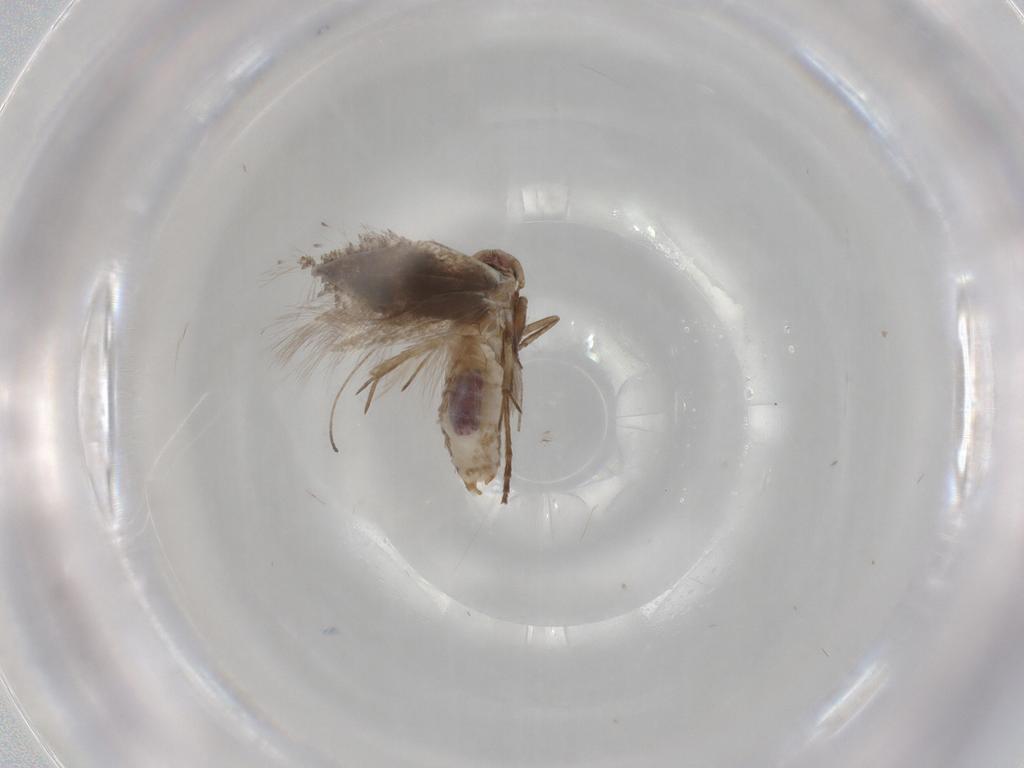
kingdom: Animalia
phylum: Arthropoda
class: Insecta
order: Lepidoptera
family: Bucculatricidae
